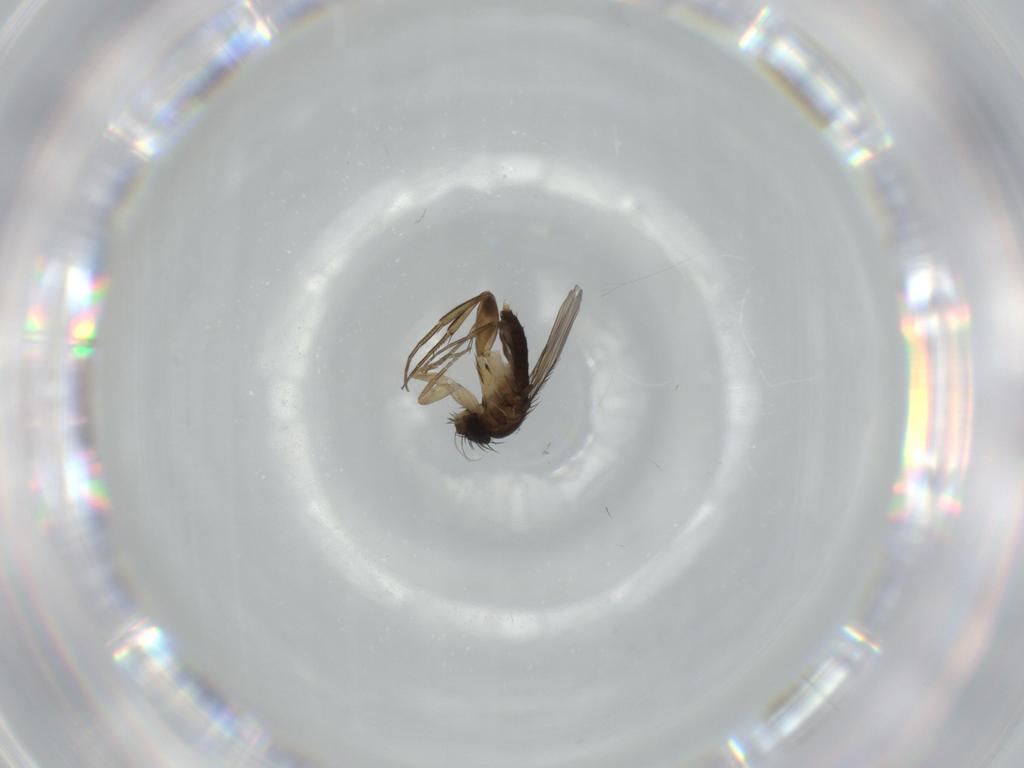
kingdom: Animalia
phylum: Arthropoda
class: Insecta
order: Diptera
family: Phoridae
